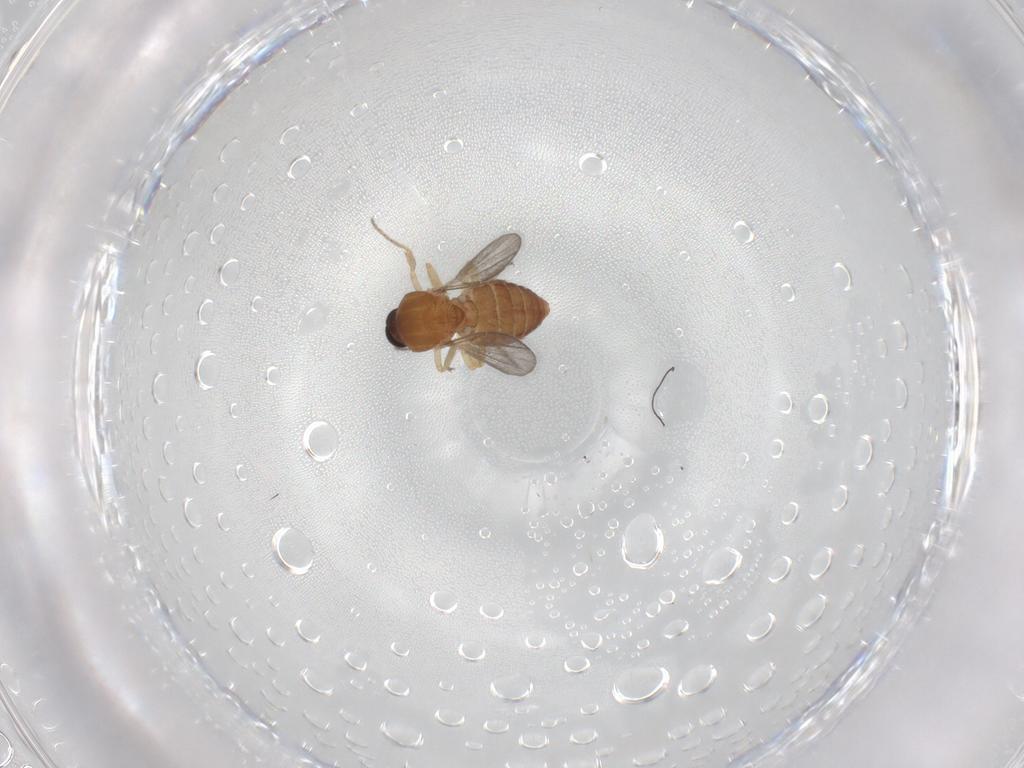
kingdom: Animalia
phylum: Arthropoda
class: Insecta
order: Diptera
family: Ceratopogonidae
